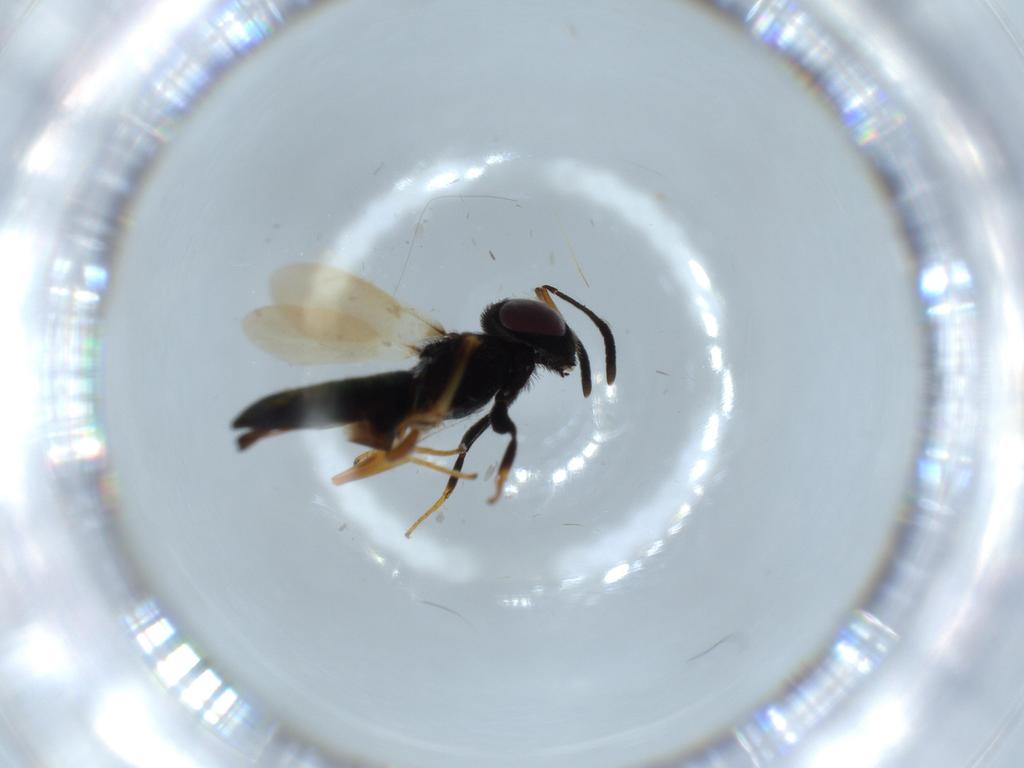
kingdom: Animalia
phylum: Arthropoda
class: Insecta
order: Hymenoptera
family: Eupelmidae
